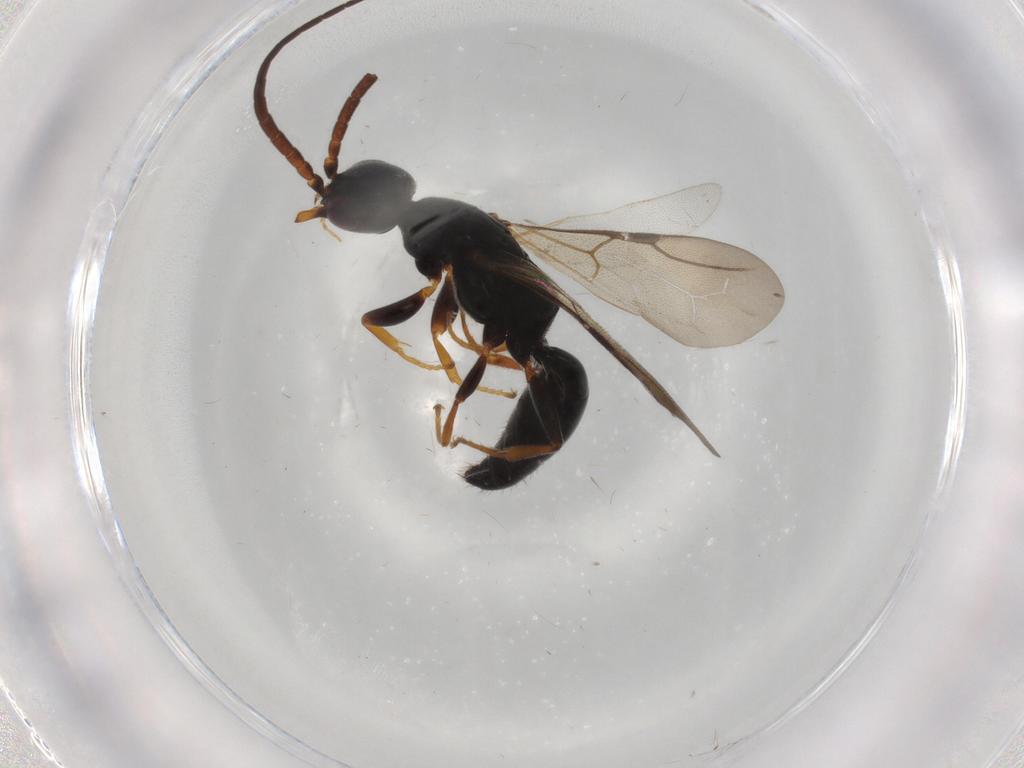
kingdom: Animalia
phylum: Arthropoda
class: Insecta
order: Hymenoptera
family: Bethylidae
